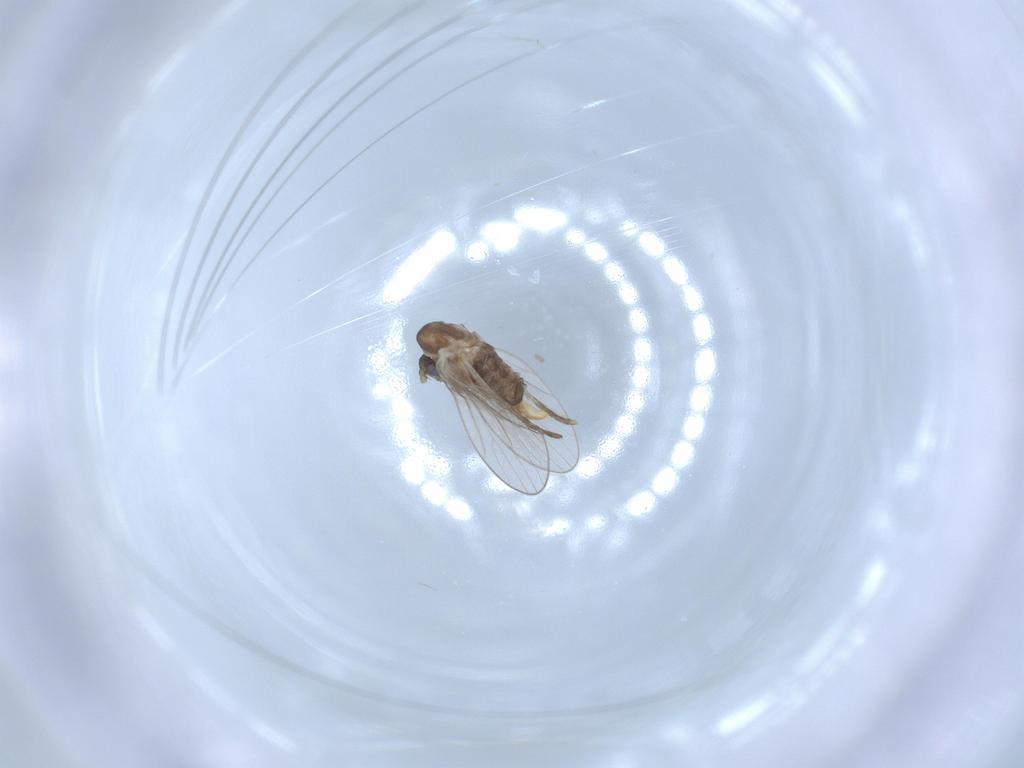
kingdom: Animalia
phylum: Arthropoda
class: Insecta
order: Diptera
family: Psychodidae
